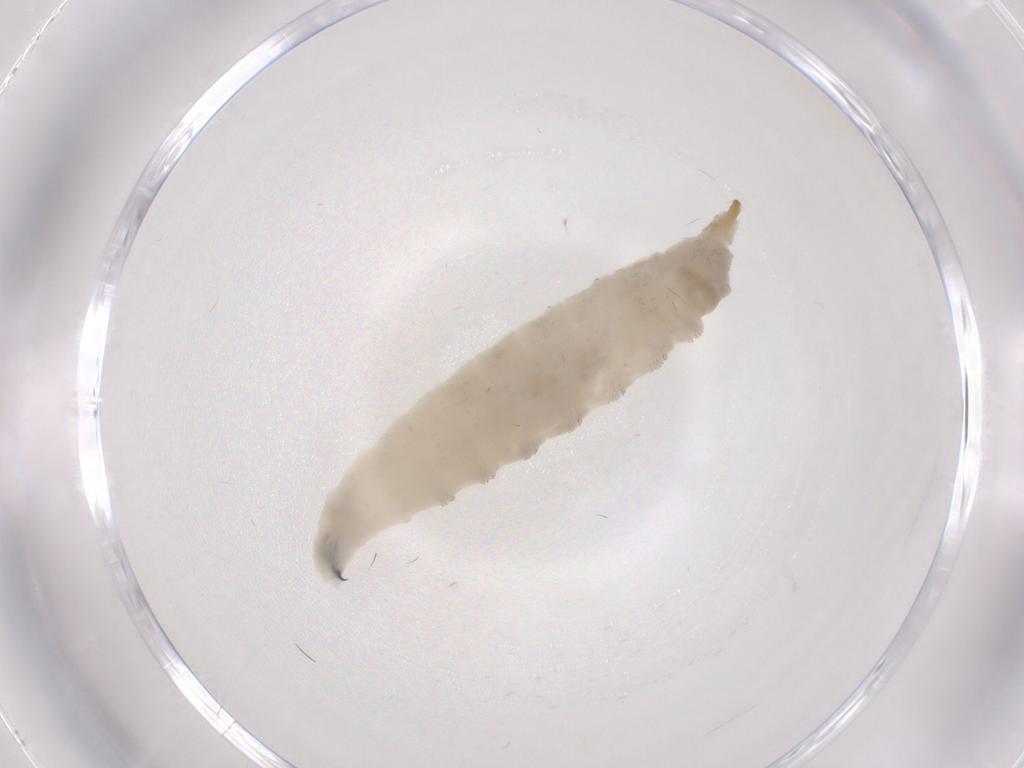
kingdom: Animalia
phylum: Arthropoda
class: Insecta
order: Diptera
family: Drosophilidae
